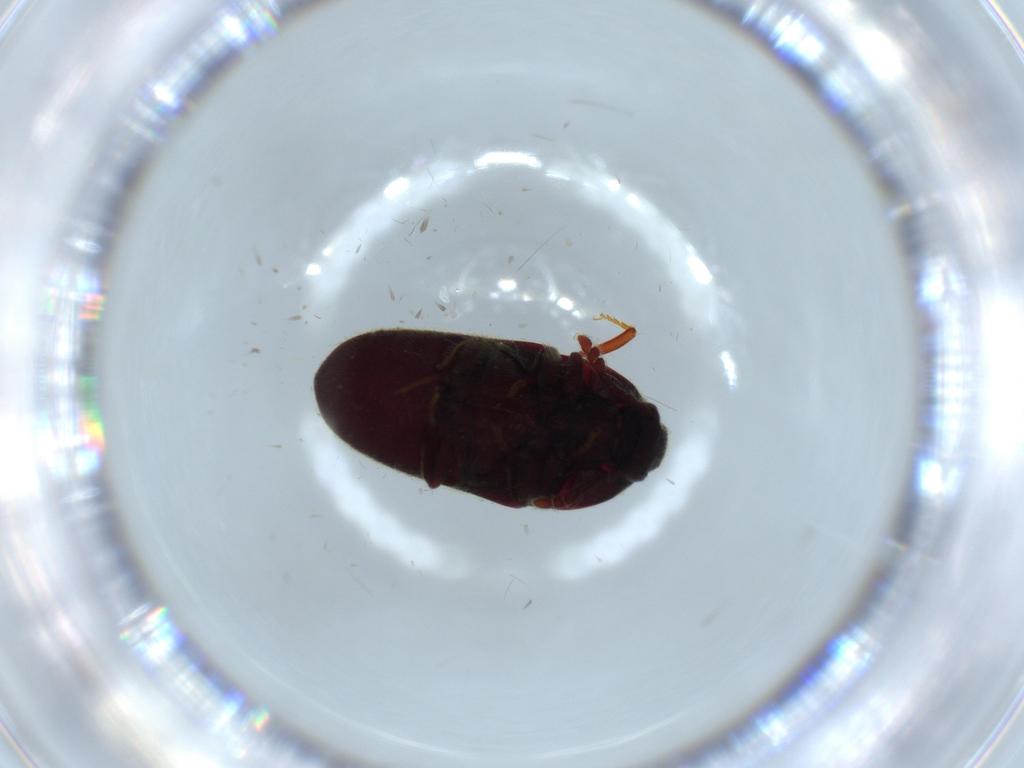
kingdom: Animalia
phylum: Arthropoda
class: Insecta
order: Coleoptera
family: Throscidae
